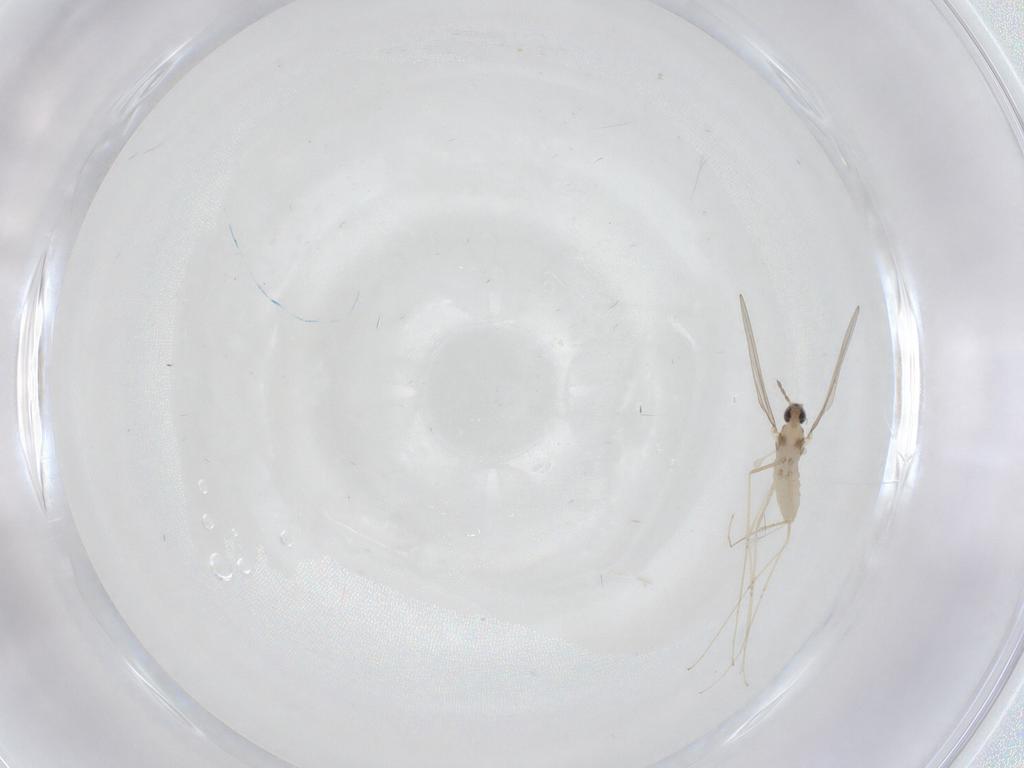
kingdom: Animalia
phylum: Arthropoda
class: Insecta
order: Diptera
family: Cecidomyiidae
